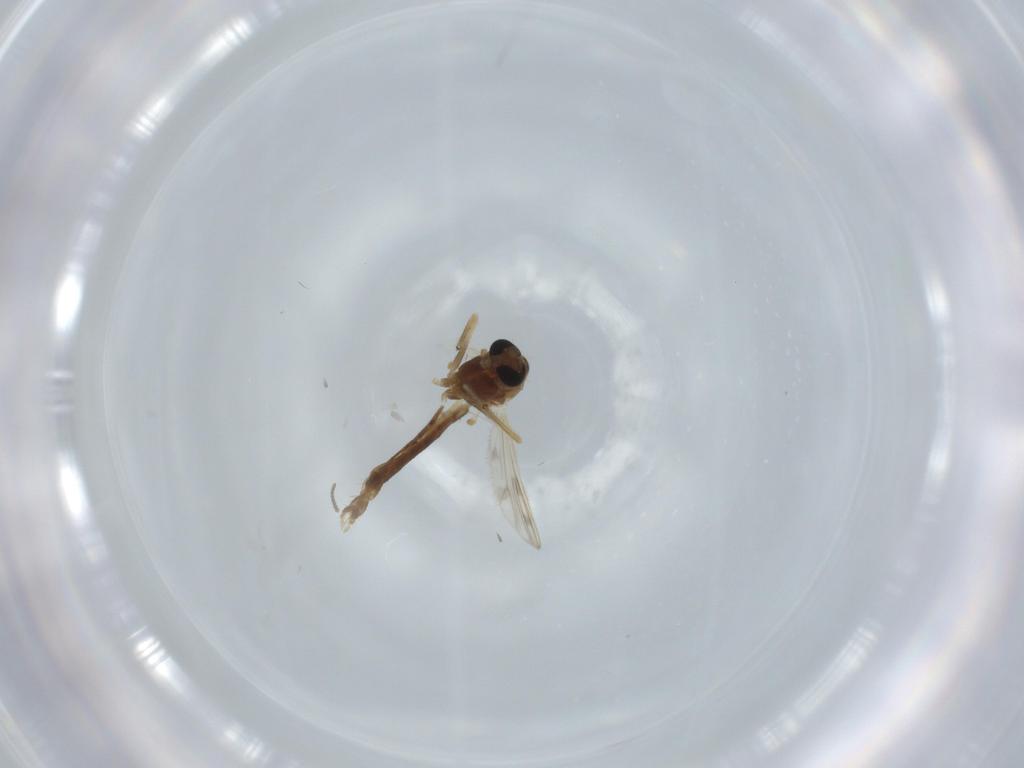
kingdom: Animalia
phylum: Arthropoda
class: Insecta
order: Diptera
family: Chironomidae
